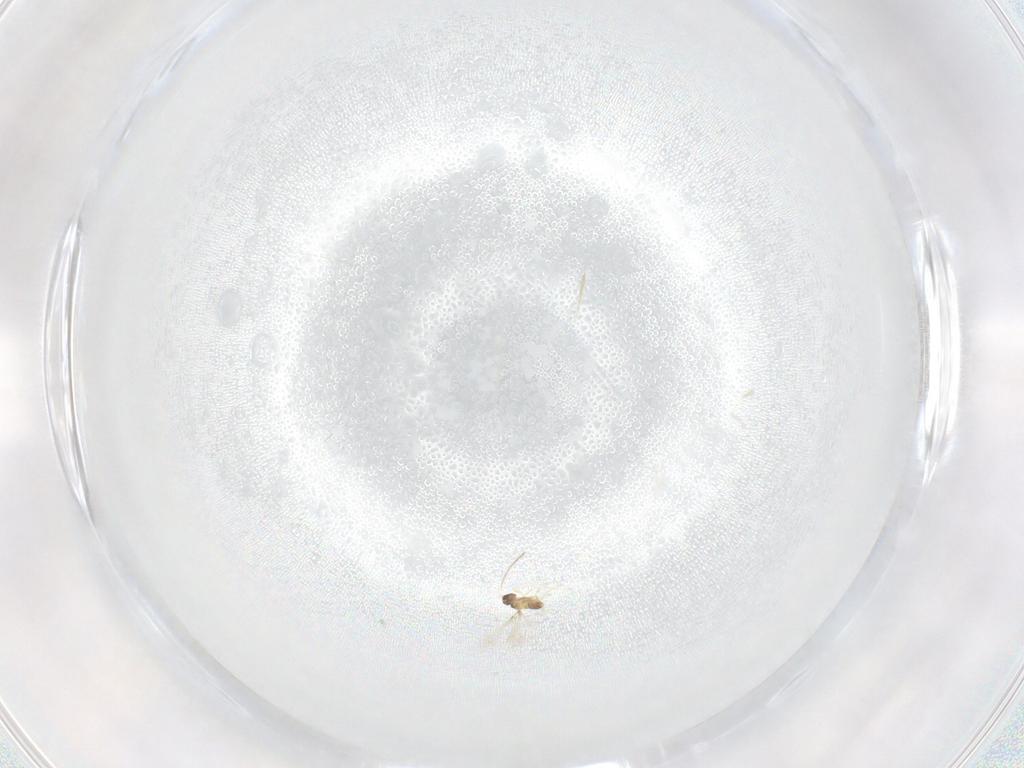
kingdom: Animalia
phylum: Arthropoda
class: Insecta
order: Hymenoptera
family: Mymaridae
